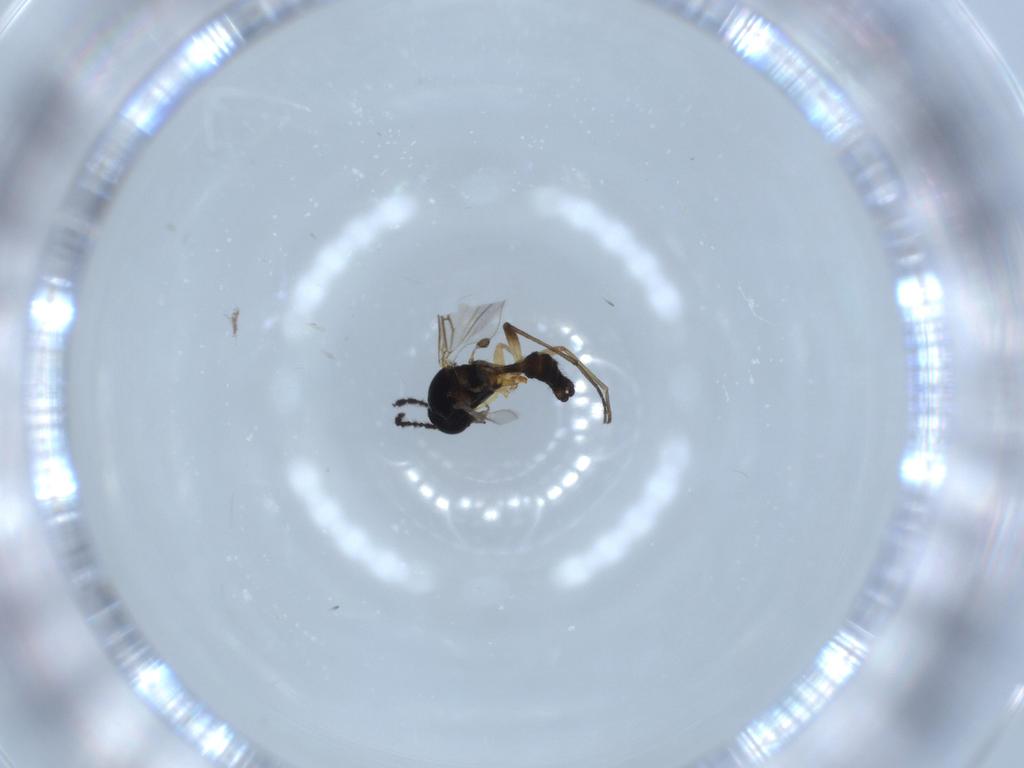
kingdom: Animalia
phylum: Arthropoda
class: Insecta
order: Diptera
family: Sciaridae
